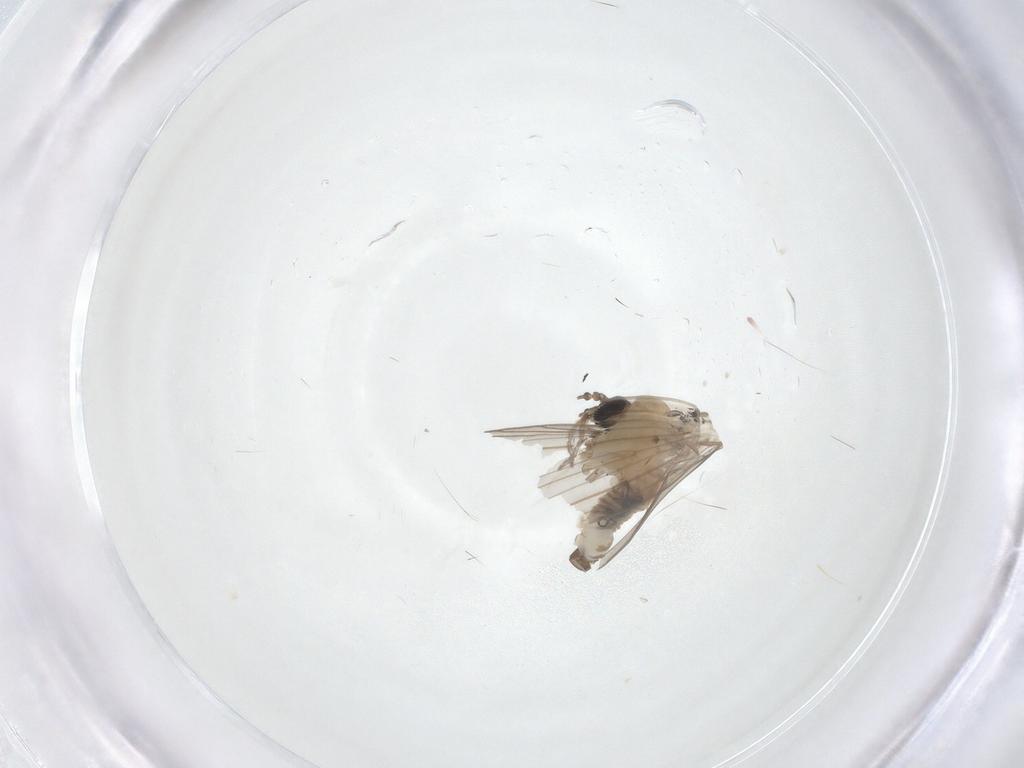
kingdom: Animalia
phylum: Arthropoda
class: Insecta
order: Diptera
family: Psychodidae
